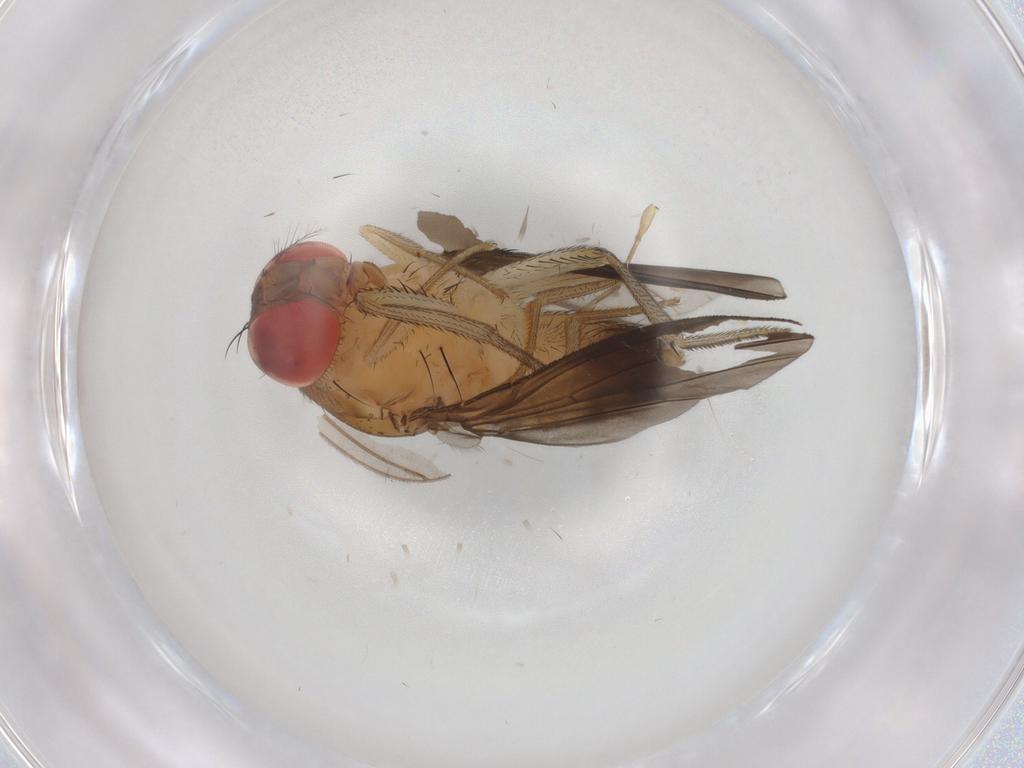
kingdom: Animalia
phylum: Arthropoda
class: Insecta
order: Diptera
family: Drosophilidae
